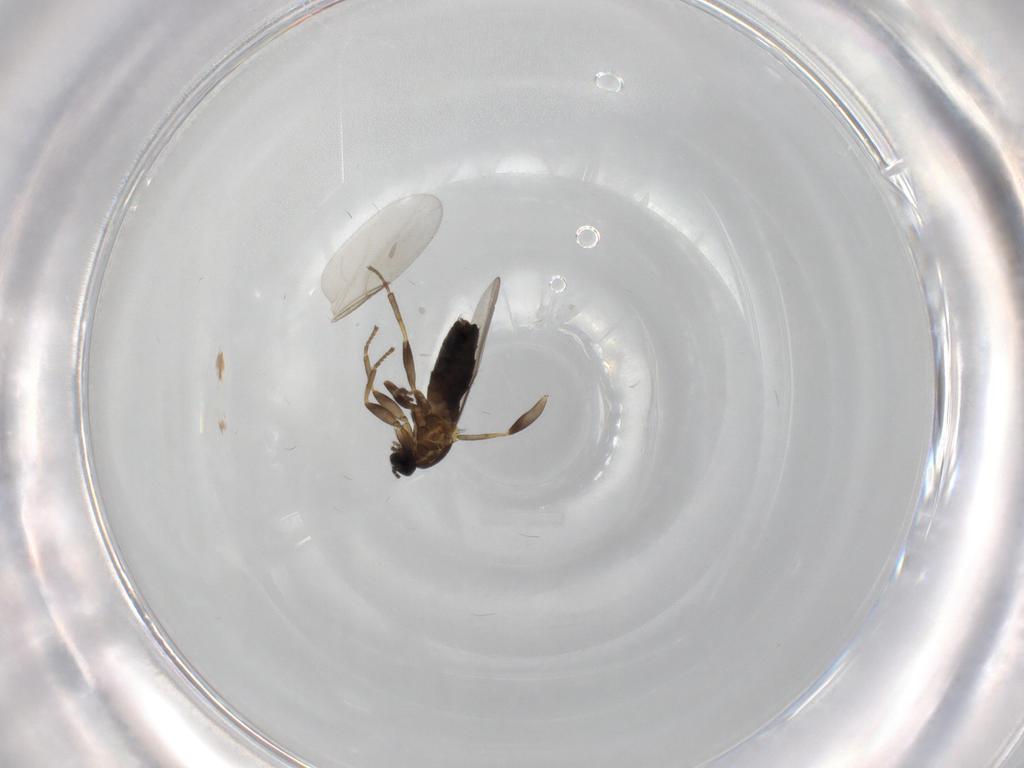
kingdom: Animalia
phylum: Arthropoda
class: Insecta
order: Diptera
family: Scatopsidae
